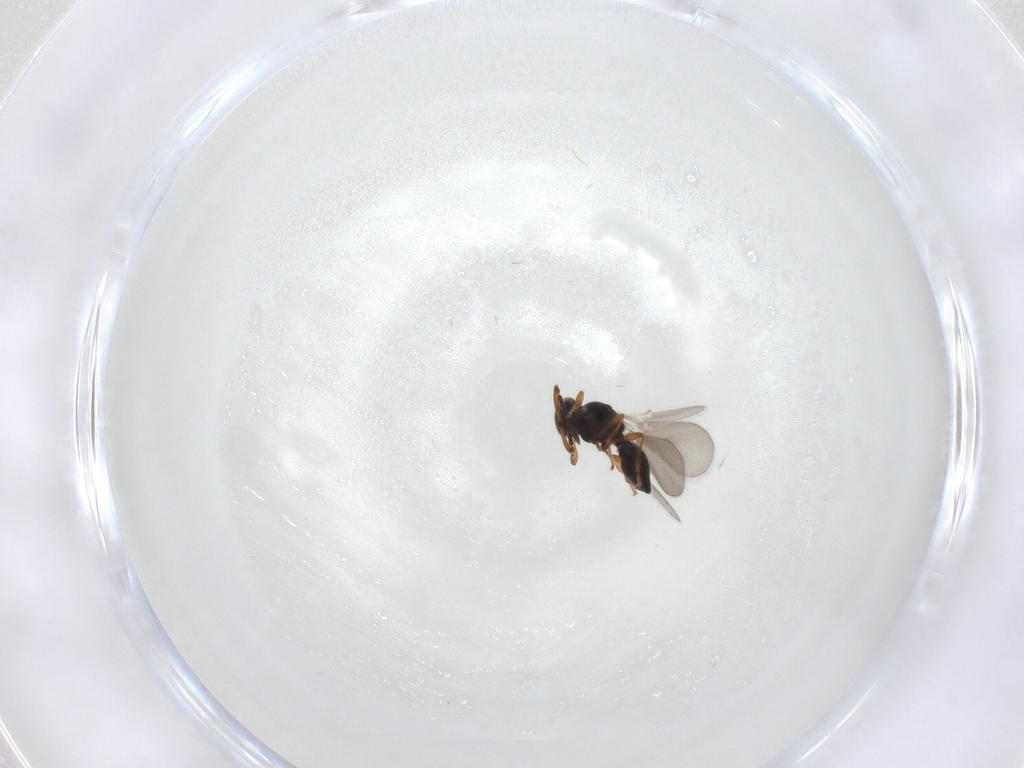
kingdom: Animalia
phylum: Arthropoda
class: Insecta
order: Hymenoptera
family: Platygastridae
